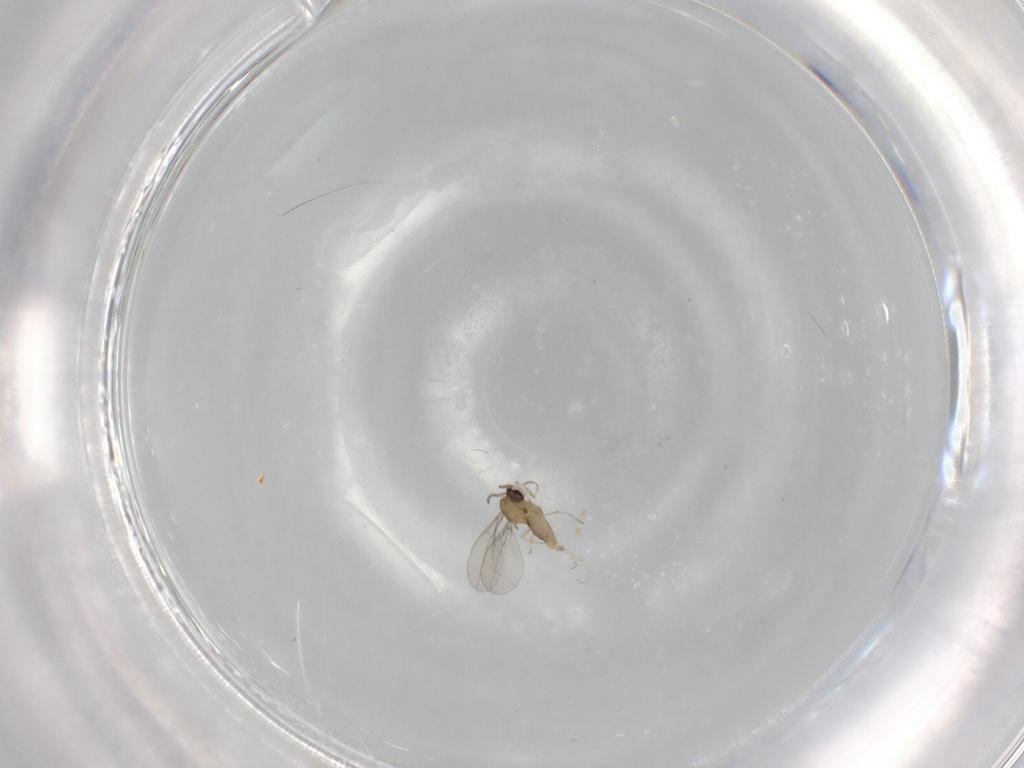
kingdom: Animalia
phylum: Arthropoda
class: Insecta
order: Diptera
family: Cecidomyiidae
